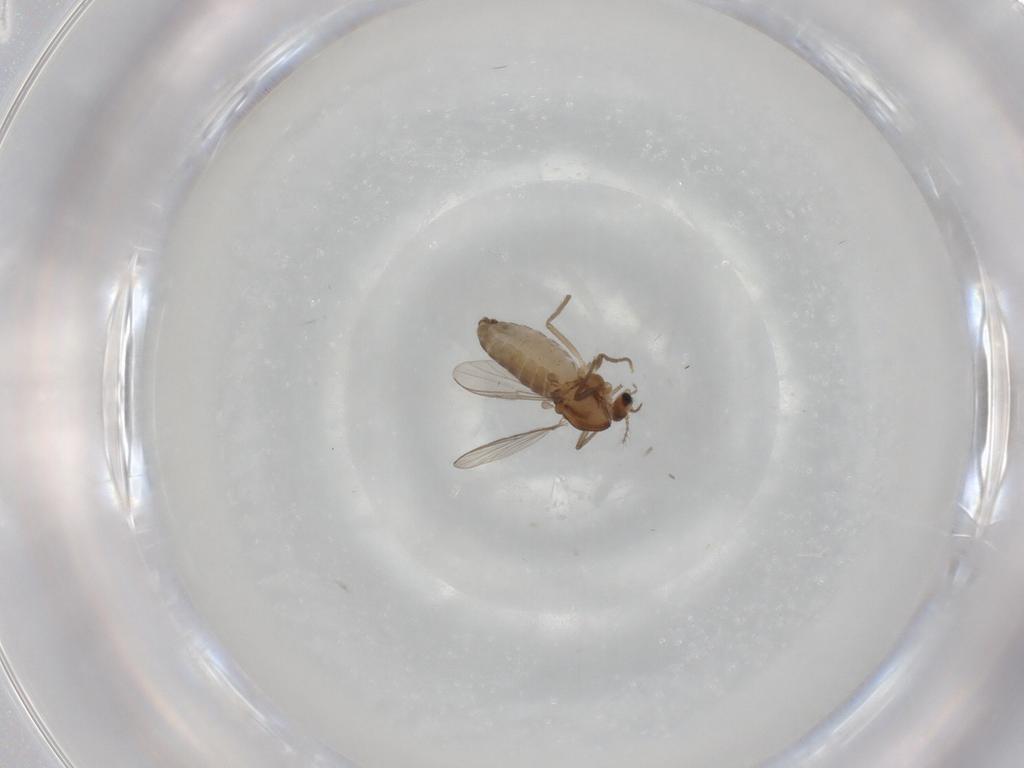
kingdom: Animalia
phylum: Arthropoda
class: Insecta
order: Diptera
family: Chironomidae
